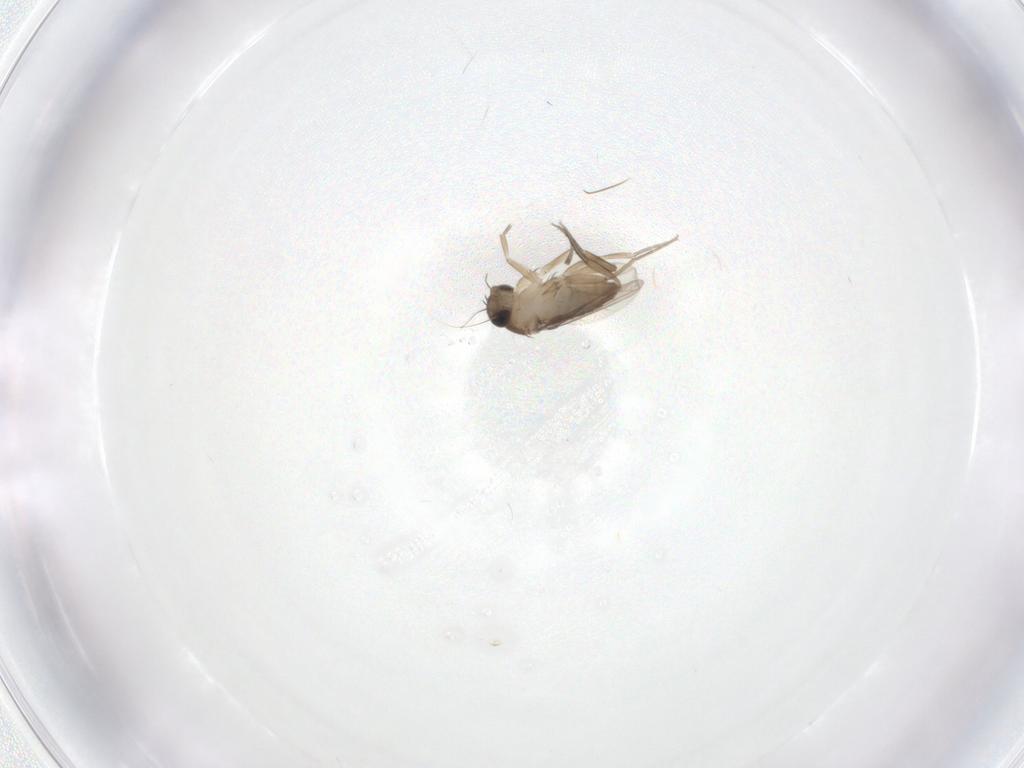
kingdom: Animalia
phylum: Arthropoda
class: Insecta
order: Diptera
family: Phoridae
